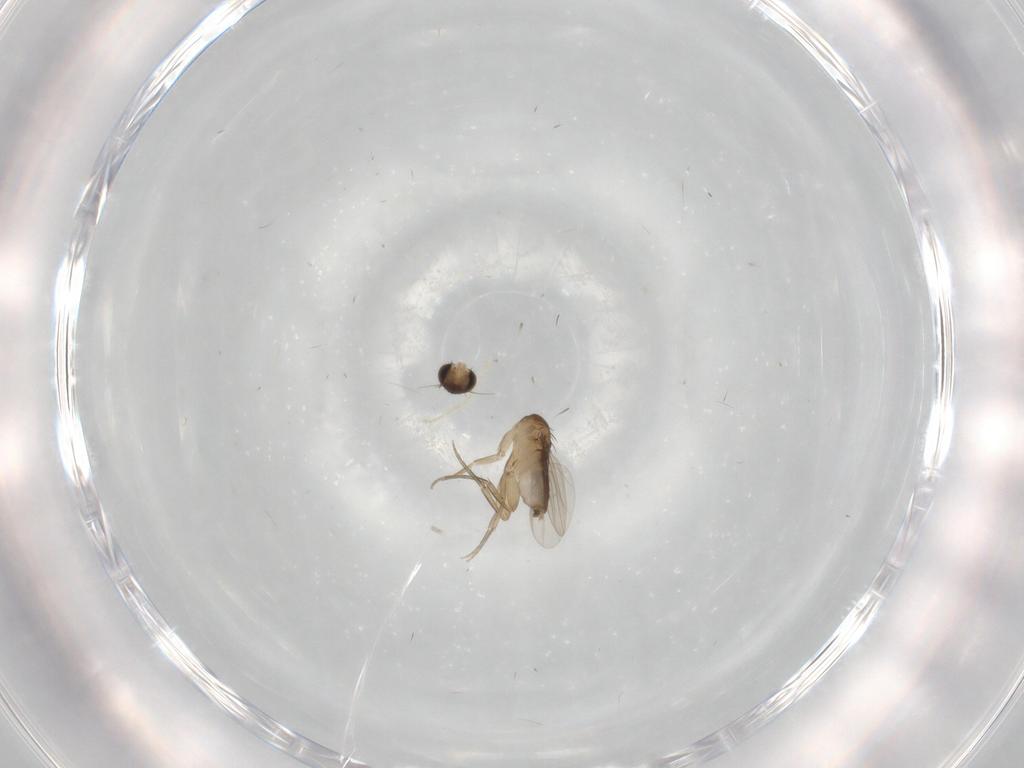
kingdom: Animalia
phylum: Arthropoda
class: Insecta
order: Diptera
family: Phoridae
